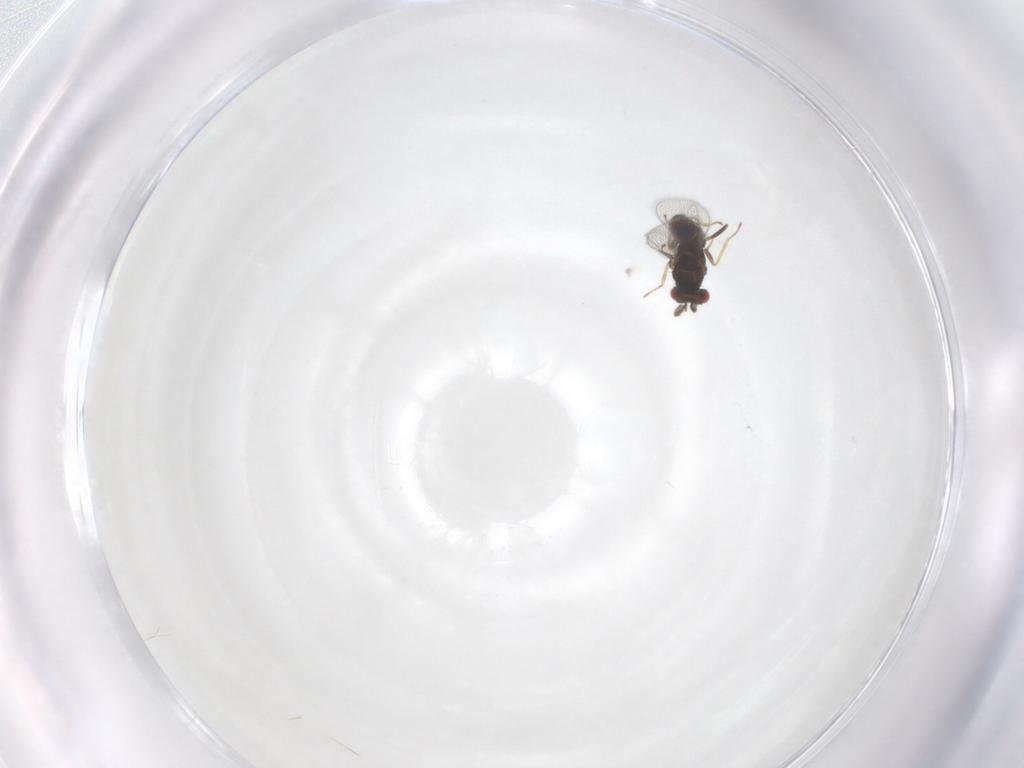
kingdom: Animalia
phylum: Arthropoda
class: Insecta
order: Hymenoptera
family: Eulophidae
